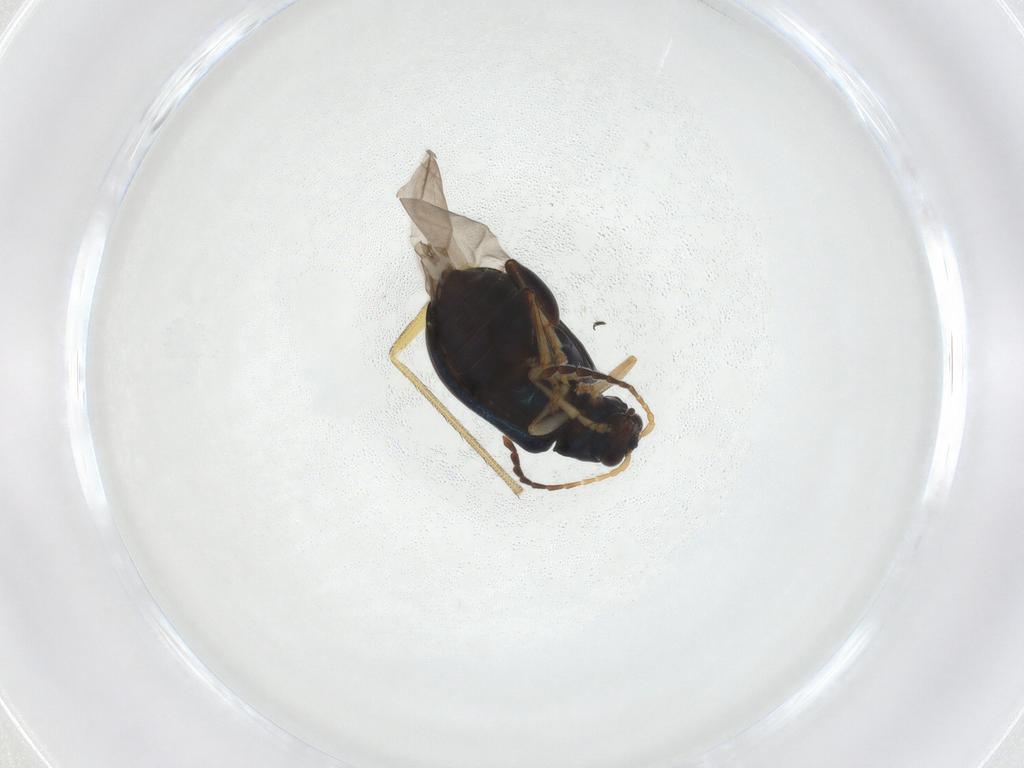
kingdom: Animalia
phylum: Arthropoda
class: Insecta
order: Coleoptera
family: Chrysomelidae
